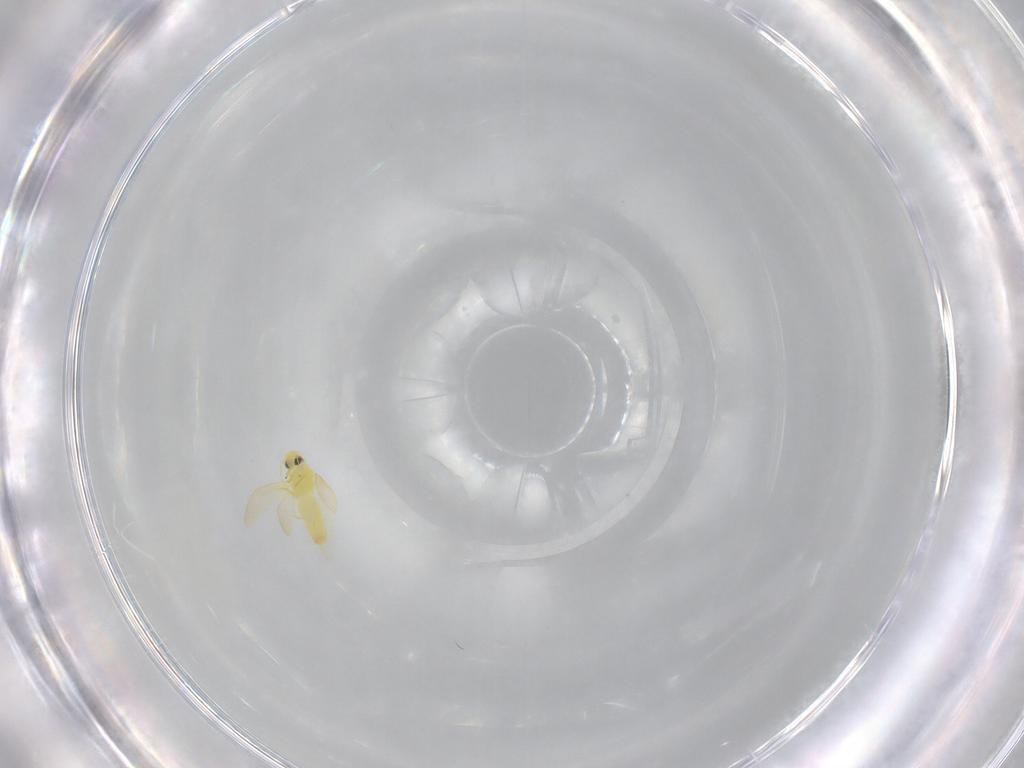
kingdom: Animalia
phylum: Arthropoda
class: Insecta
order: Hemiptera
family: Aleyrodidae
